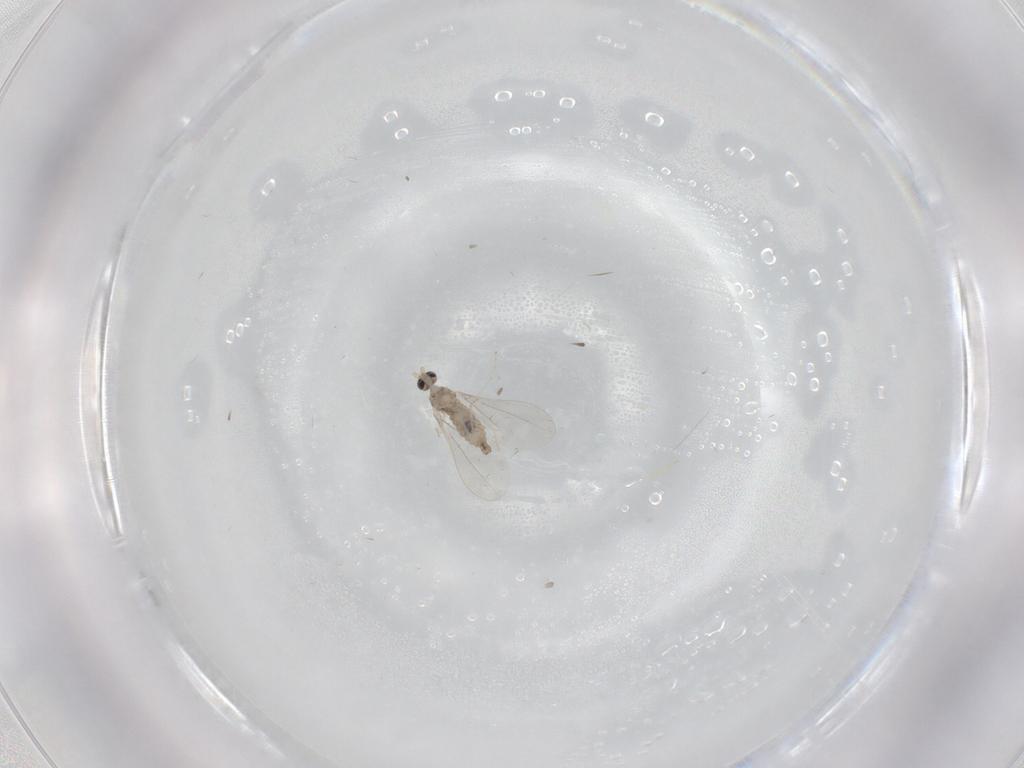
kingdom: Animalia
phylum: Arthropoda
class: Insecta
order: Diptera
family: Cecidomyiidae
